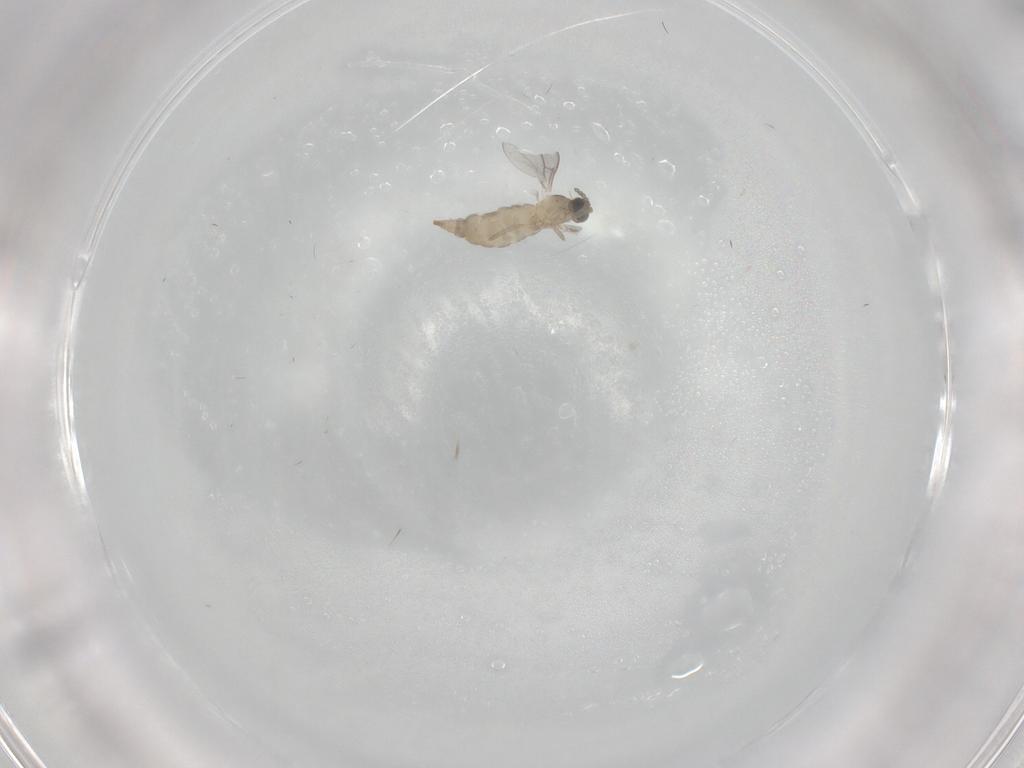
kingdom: Animalia
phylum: Arthropoda
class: Insecta
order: Diptera
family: Cecidomyiidae
